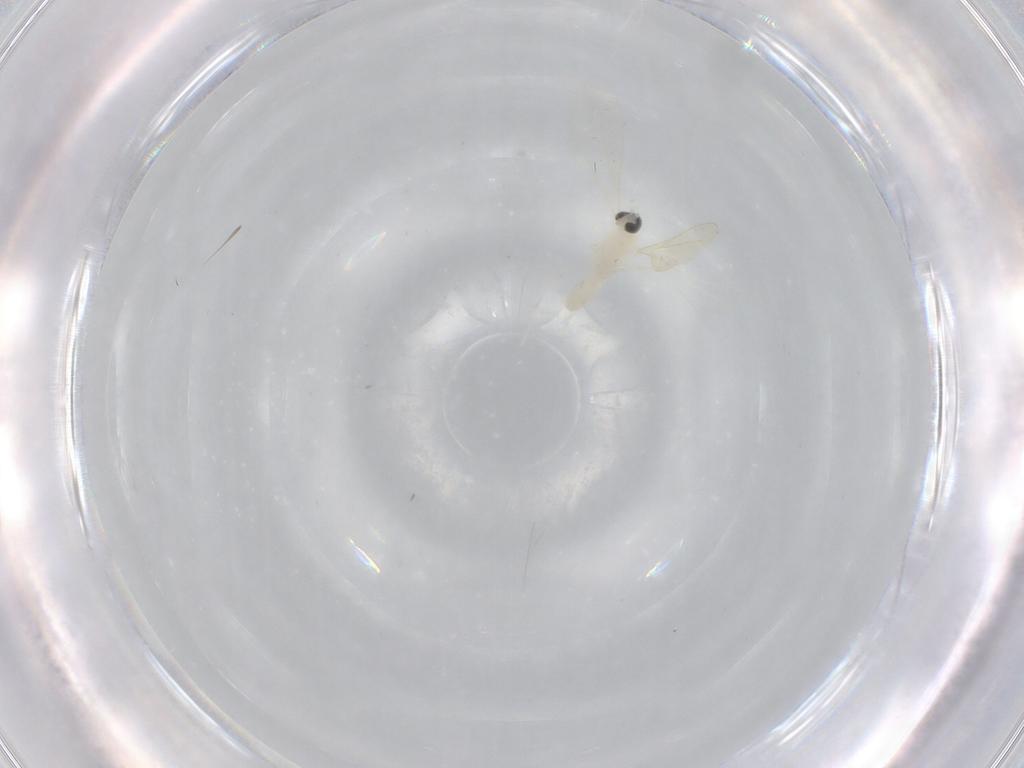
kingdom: Animalia
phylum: Arthropoda
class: Insecta
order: Diptera
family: Cecidomyiidae
